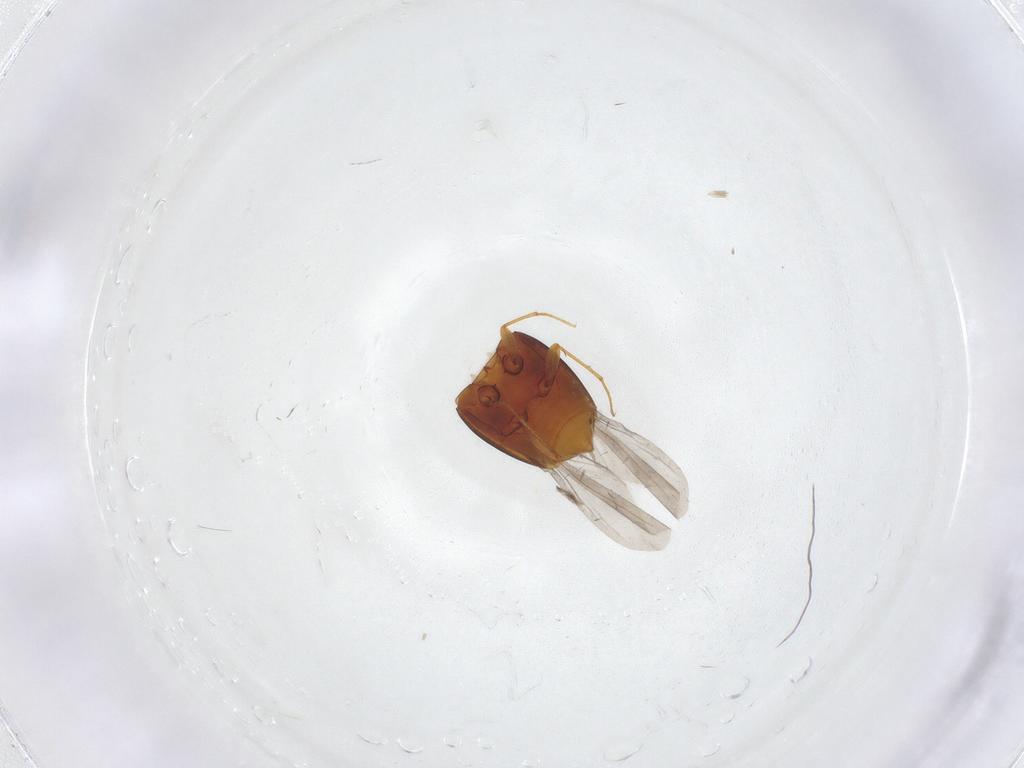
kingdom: Animalia
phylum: Arthropoda
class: Insecta
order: Coleoptera
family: Staphylinidae
